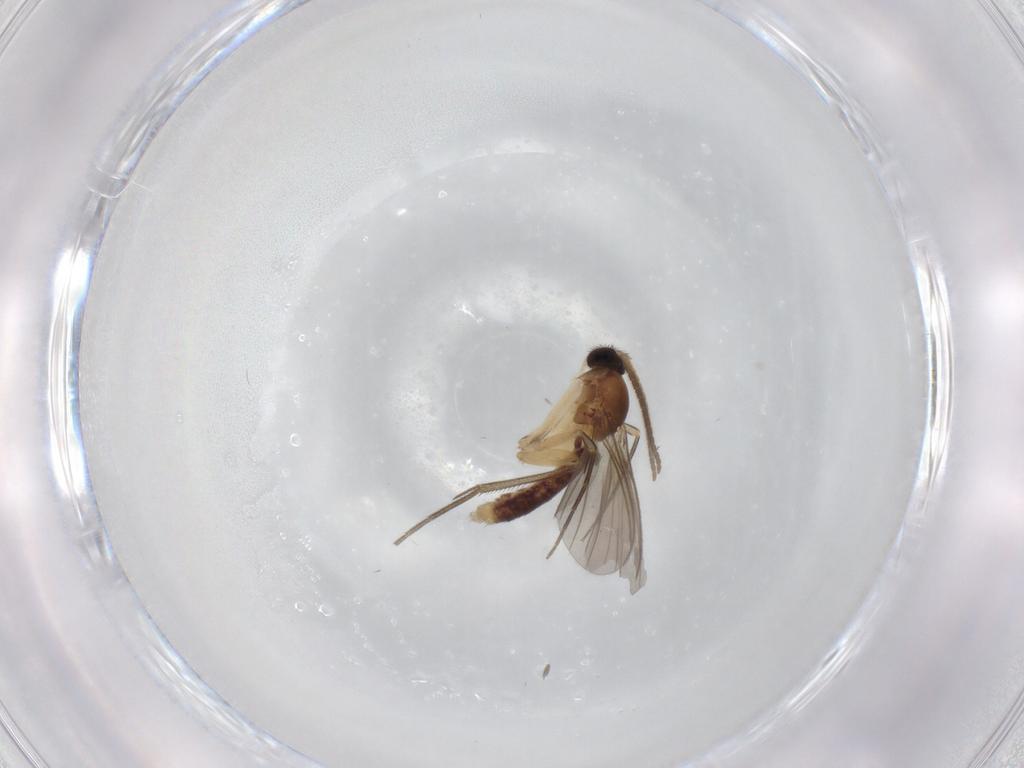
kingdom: Animalia
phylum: Arthropoda
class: Insecta
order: Diptera
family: Mycetophilidae
